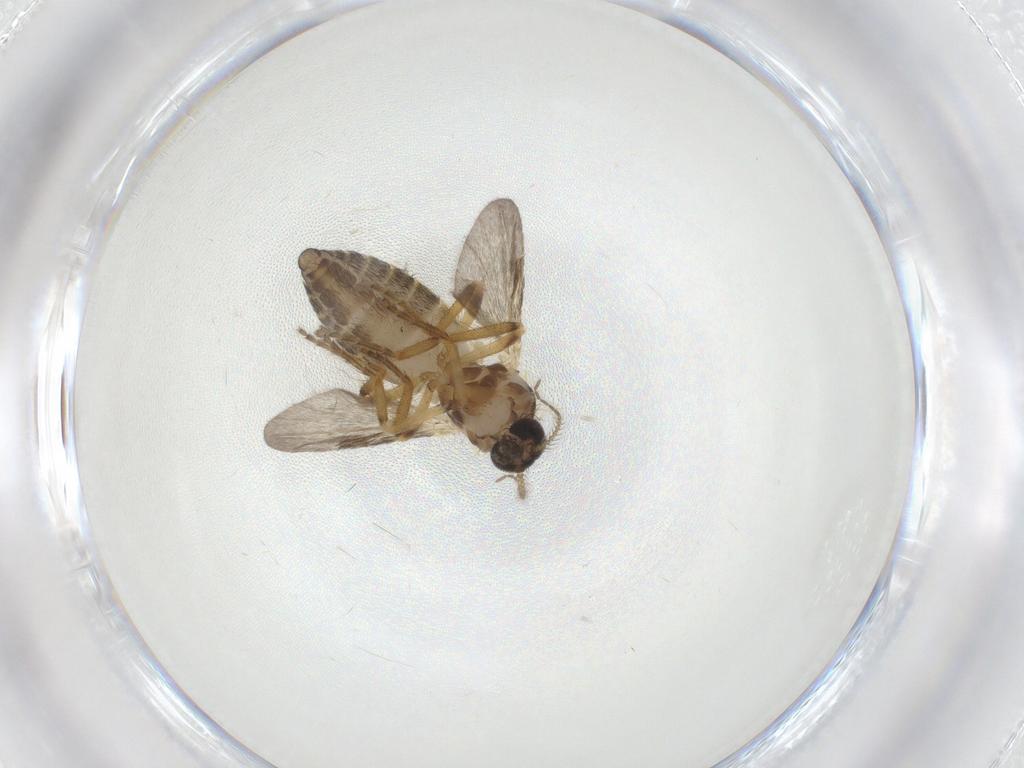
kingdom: Animalia
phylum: Arthropoda
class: Insecta
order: Diptera
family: Ceratopogonidae
